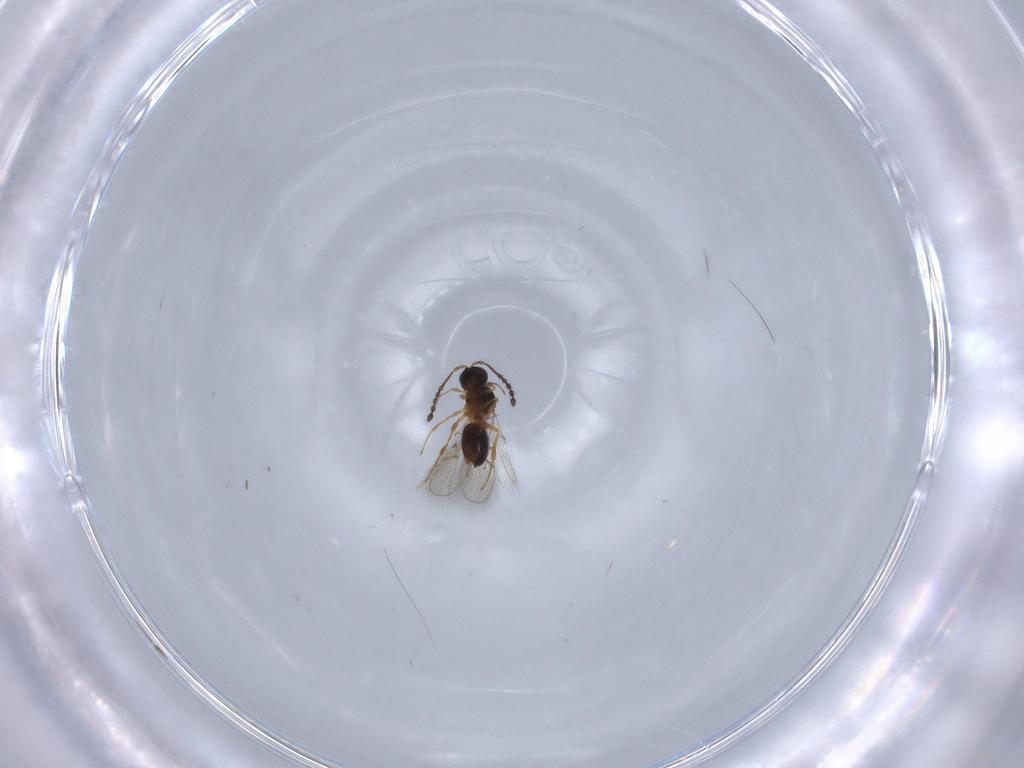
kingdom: Animalia
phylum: Arthropoda
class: Insecta
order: Hymenoptera
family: Figitidae
